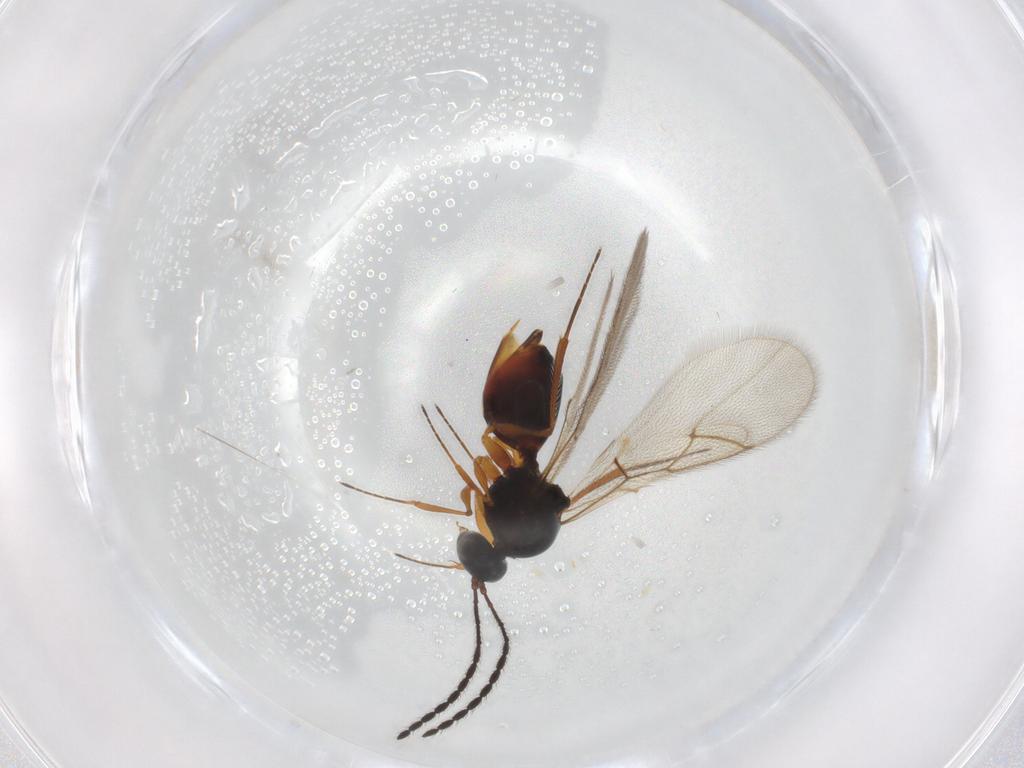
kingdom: Animalia
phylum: Arthropoda
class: Insecta
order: Hymenoptera
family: Figitidae
